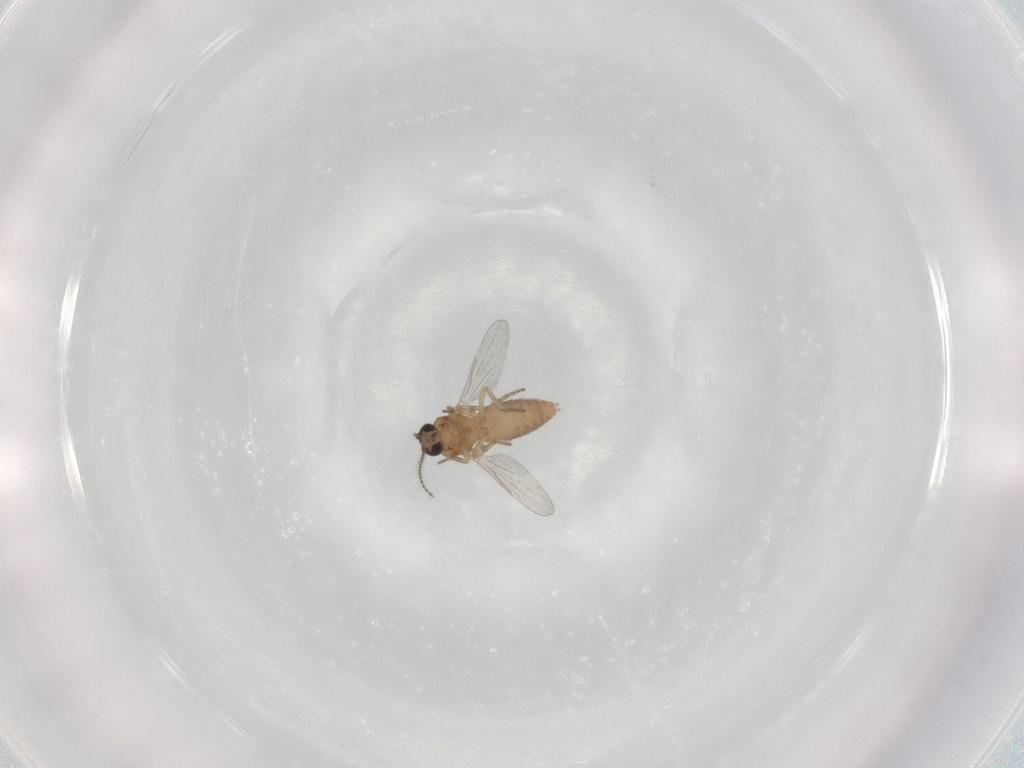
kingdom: Animalia
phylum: Arthropoda
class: Insecta
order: Diptera
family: Ceratopogonidae
